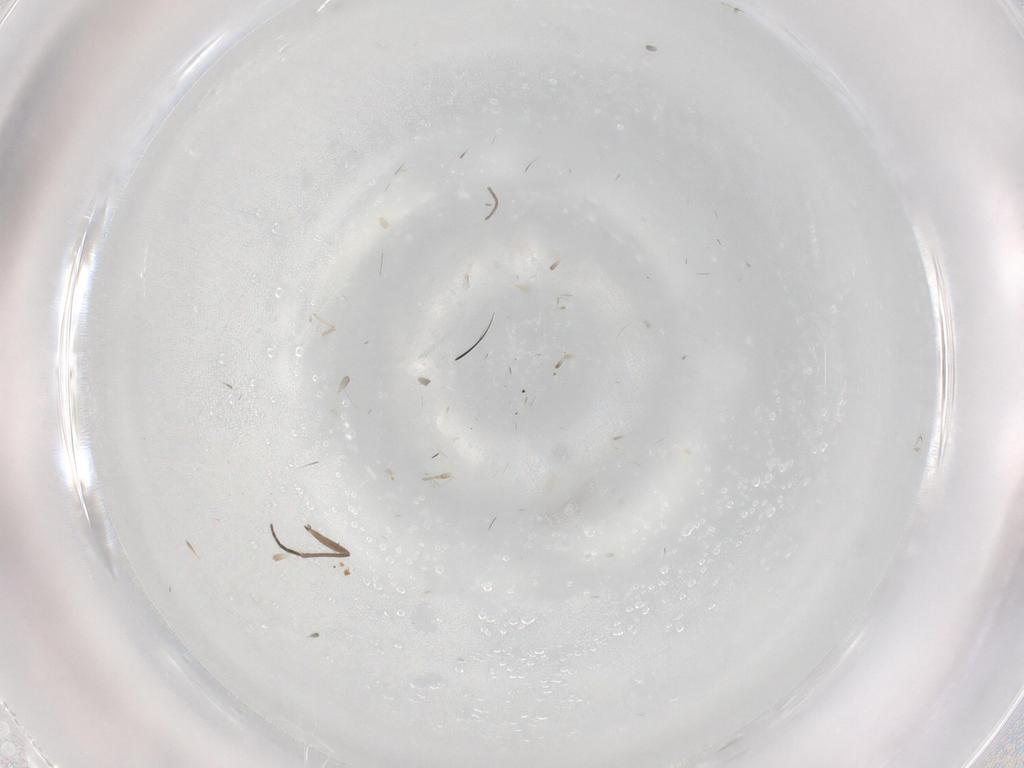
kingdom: Animalia
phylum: Arthropoda
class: Insecta
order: Diptera
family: Sciaridae
